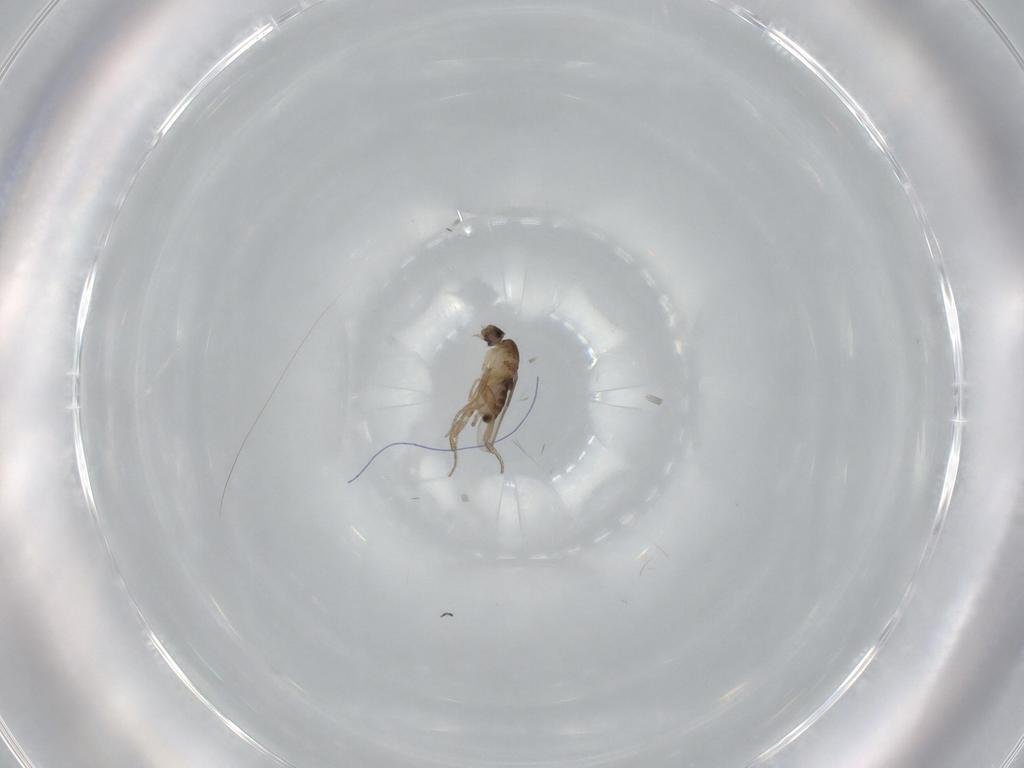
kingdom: Animalia
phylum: Arthropoda
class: Insecta
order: Diptera
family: Phoridae
